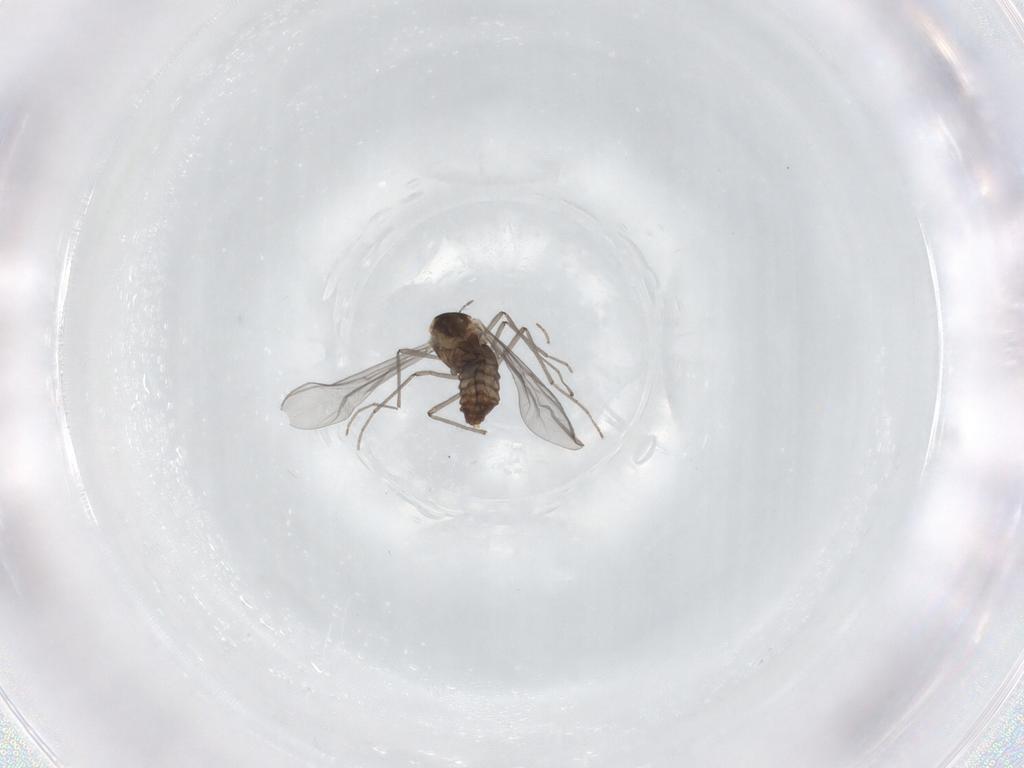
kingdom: Animalia
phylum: Arthropoda
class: Insecta
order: Diptera
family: Chironomidae
